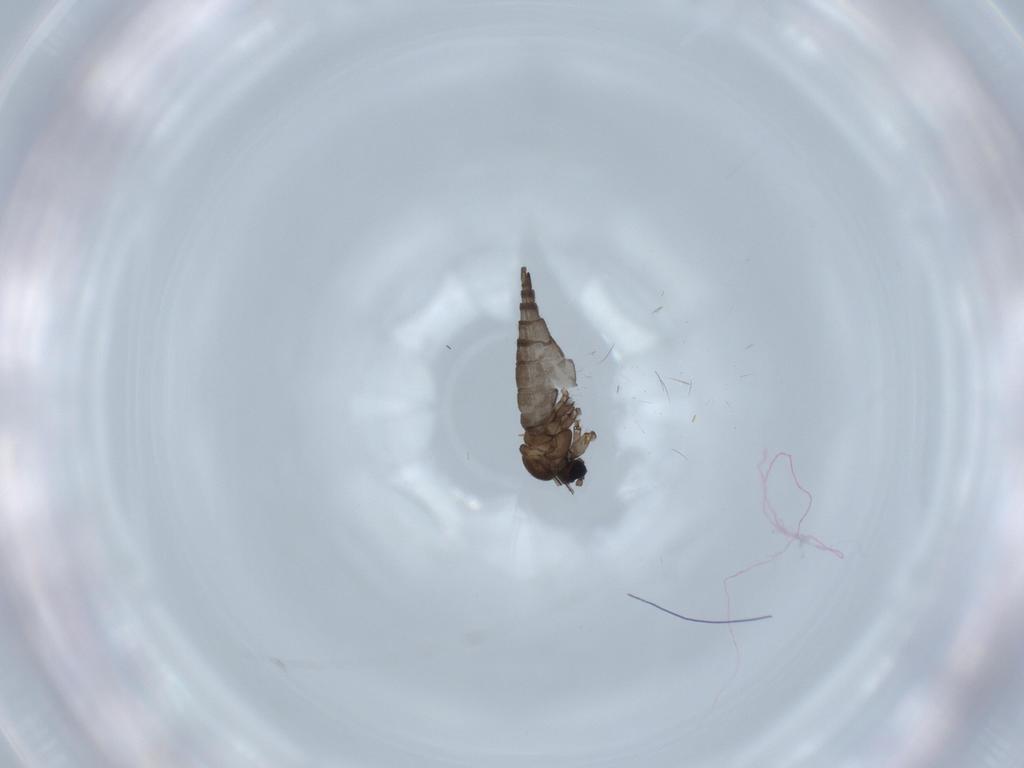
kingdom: Animalia
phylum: Arthropoda
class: Insecta
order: Diptera
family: Sciaridae
